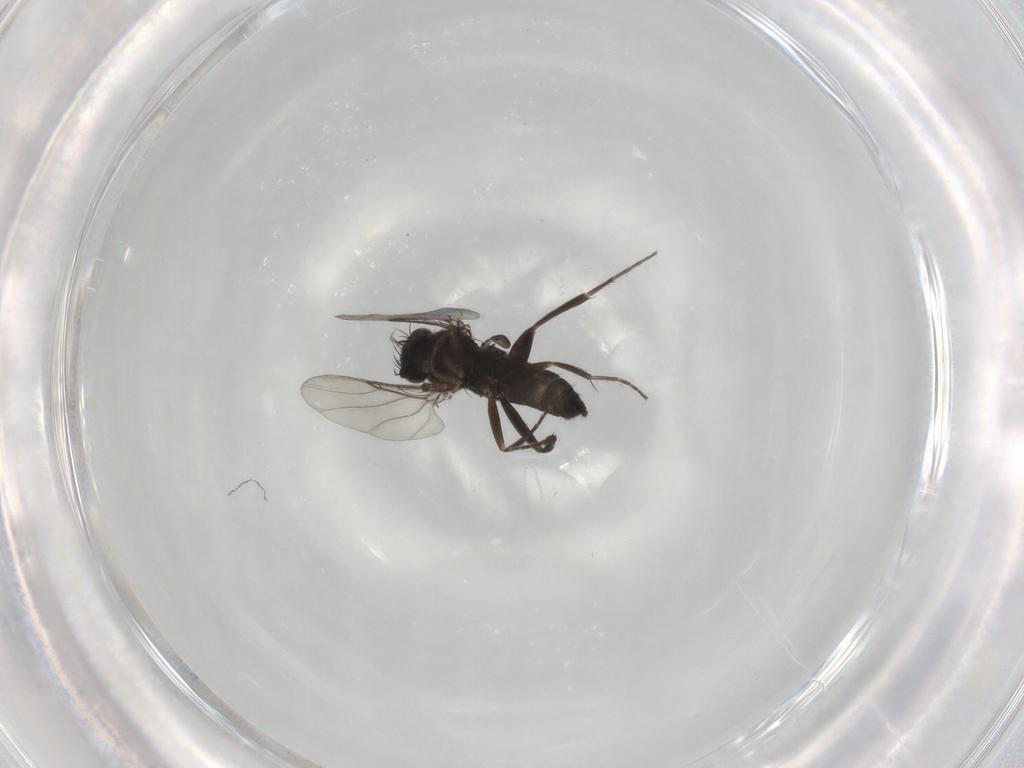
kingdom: Animalia
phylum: Arthropoda
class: Insecta
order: Diptera
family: Phoridae
